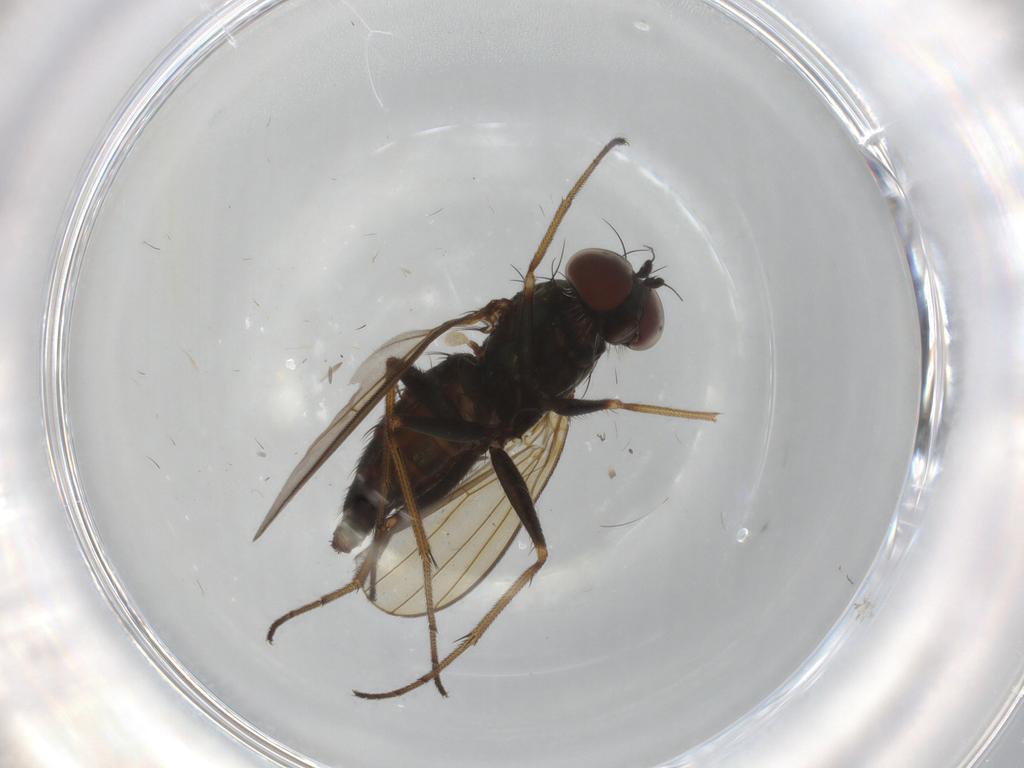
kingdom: Animalia
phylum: Arthropoda
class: Insecta
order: Diptera
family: Dolichopodidae
